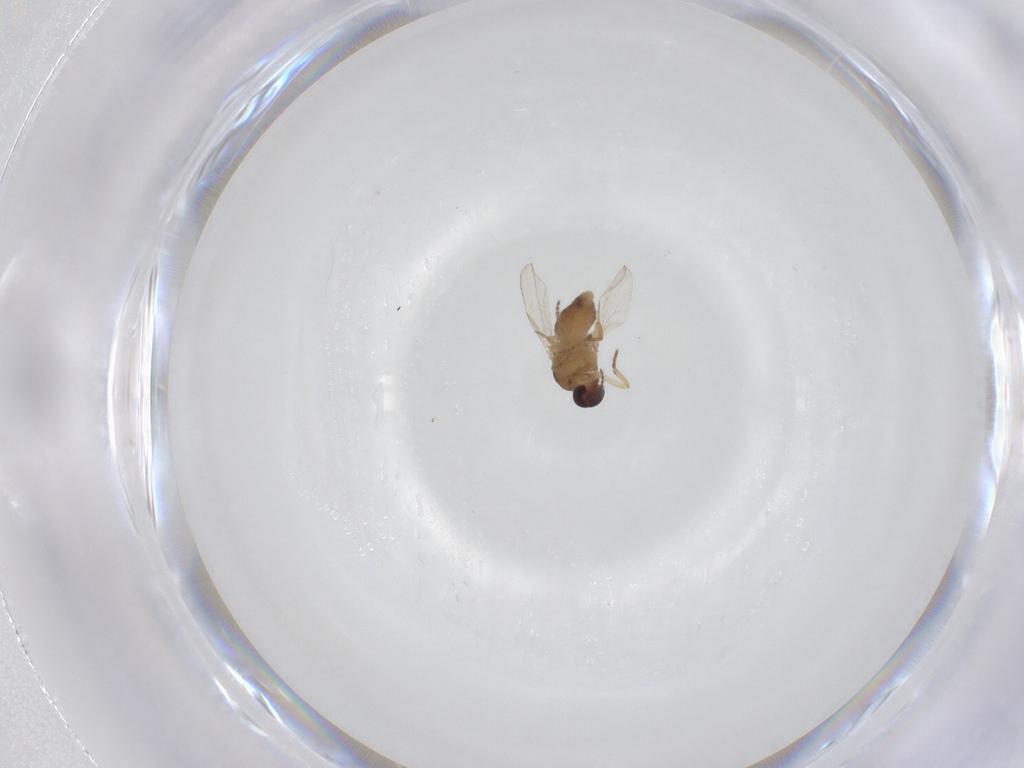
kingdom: Animalia
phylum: Arthropoda
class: Insecta
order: Diptera
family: Ceratopogonidae
